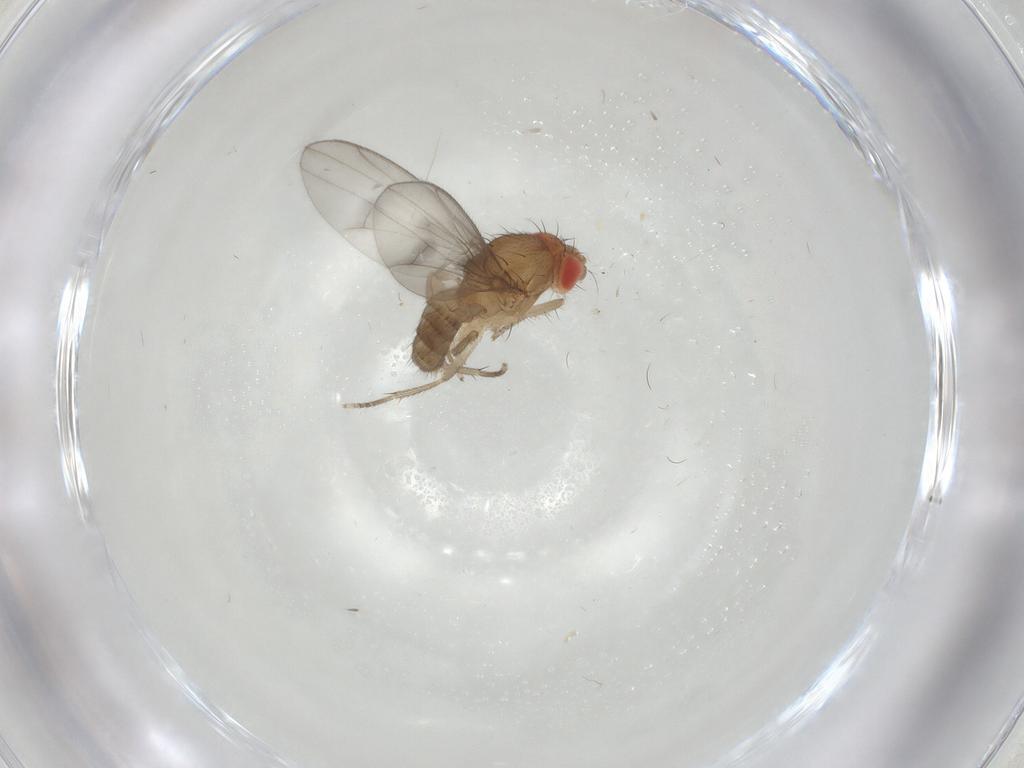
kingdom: Animalia
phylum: Arthropoda
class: Insecta
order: Diptera
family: Drosophilidae
